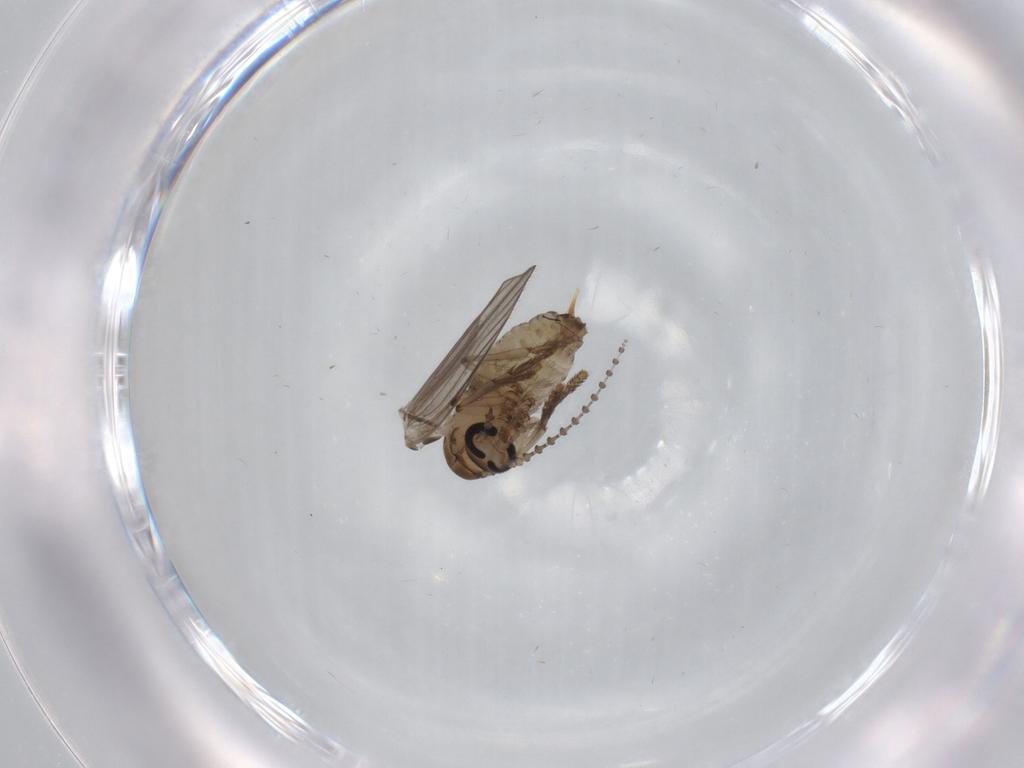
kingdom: Animalia
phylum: Arthropoda
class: Insecta
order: Diptera
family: Psychodidae
